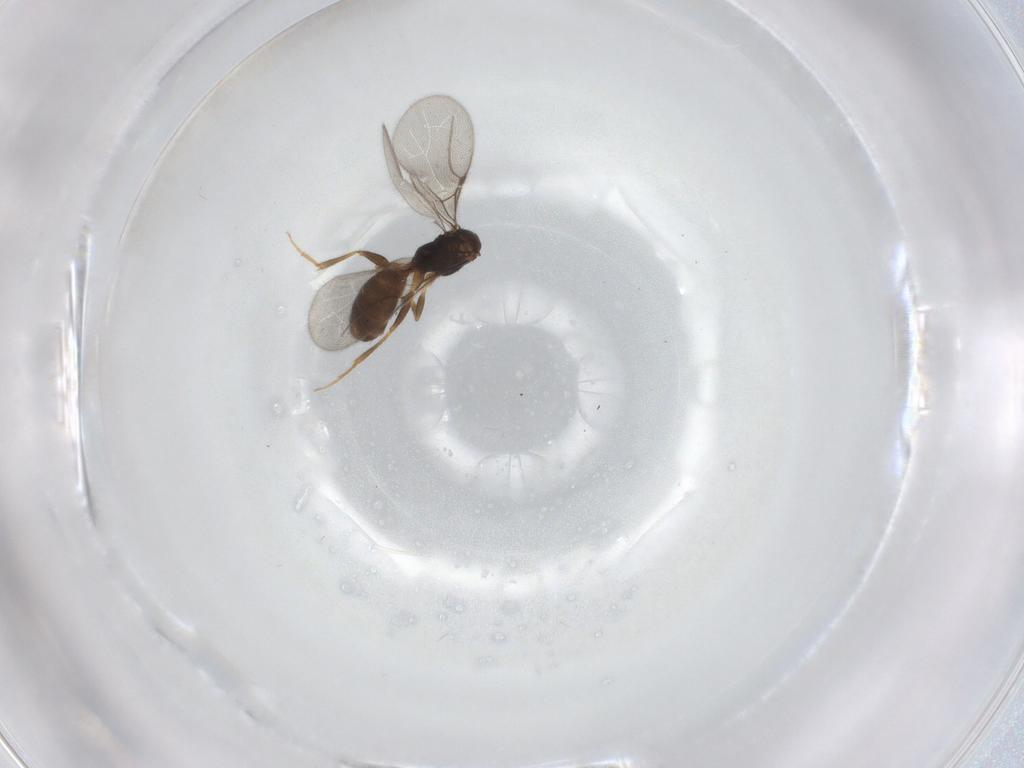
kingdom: Animalia
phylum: Arthropoda
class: Insecta
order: Hymenoptera
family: Bethylidae
